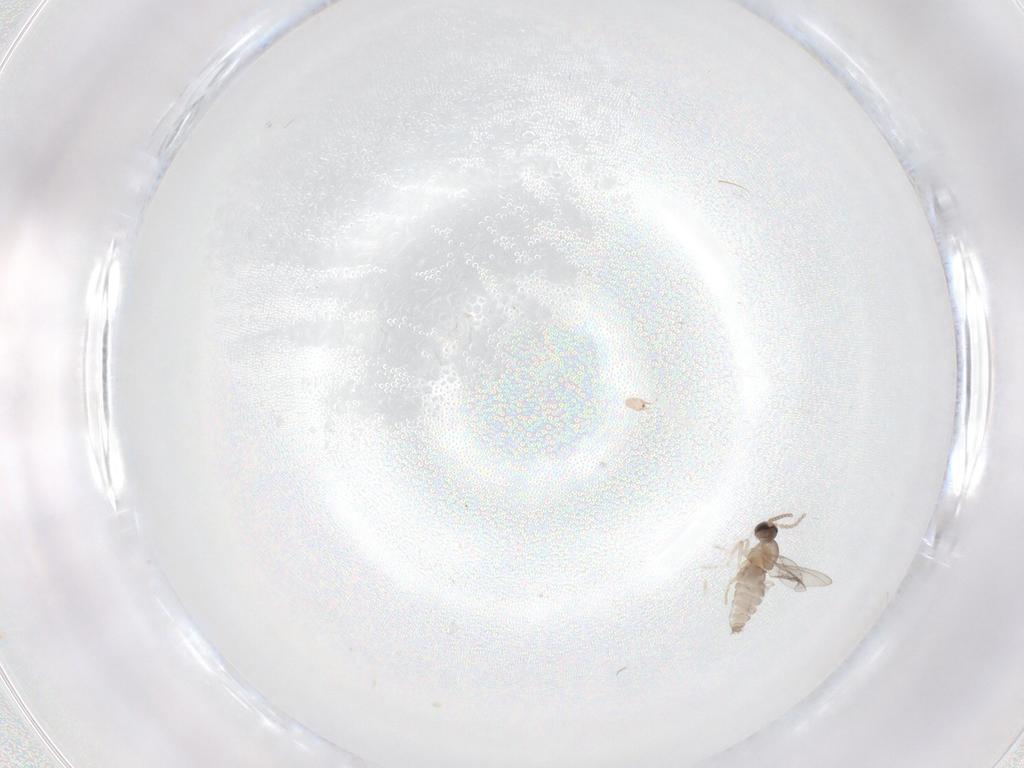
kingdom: Animalia
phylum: Arthropoda
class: Insecta
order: Diptera
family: Cecidomyiidae
